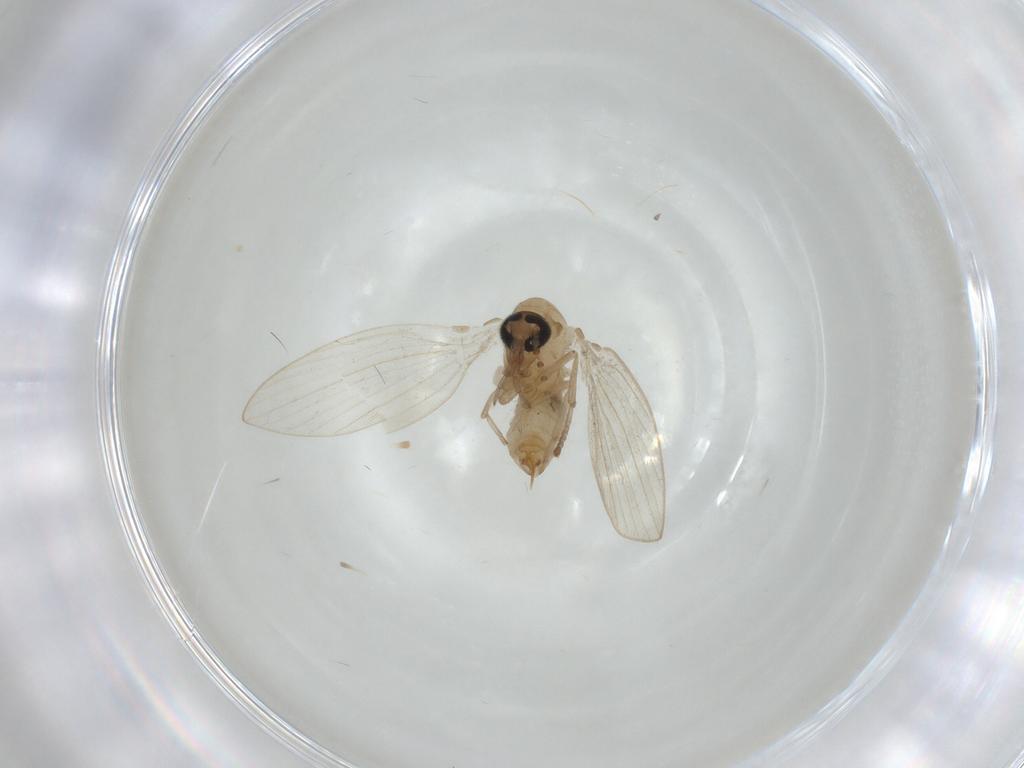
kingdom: Animalia
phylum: Arthropoda
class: Insecta
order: Diptera
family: Psychodidae
